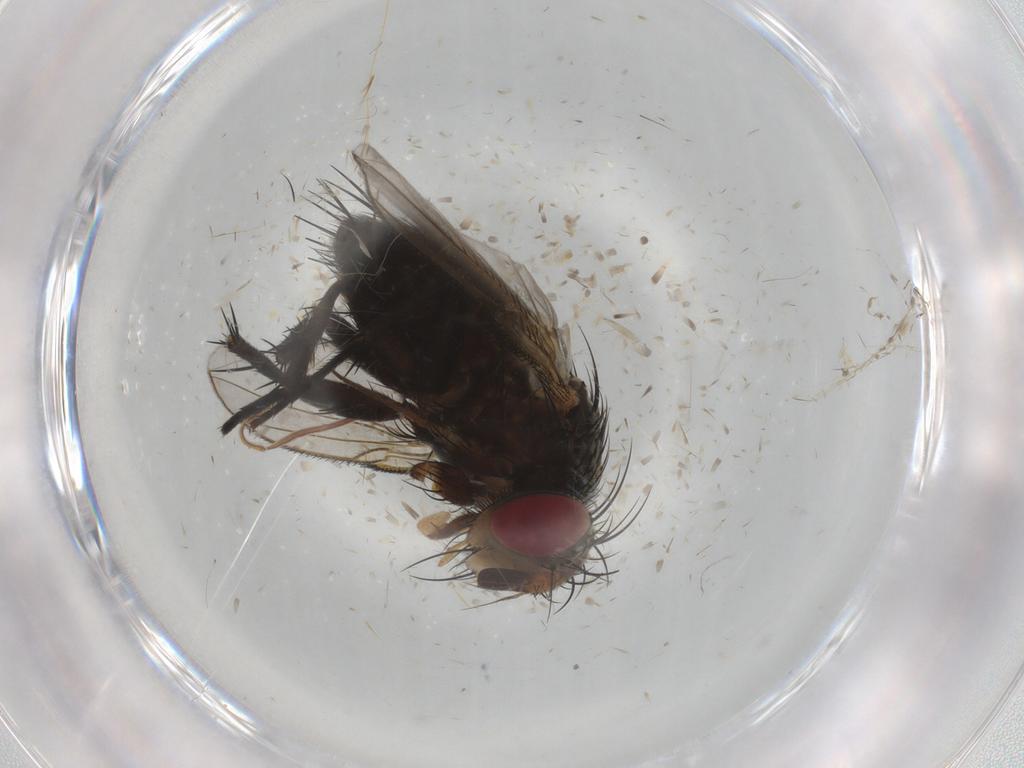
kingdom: Animalia
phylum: Arthropoda
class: Insecta
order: Diptera
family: Tachinidae
